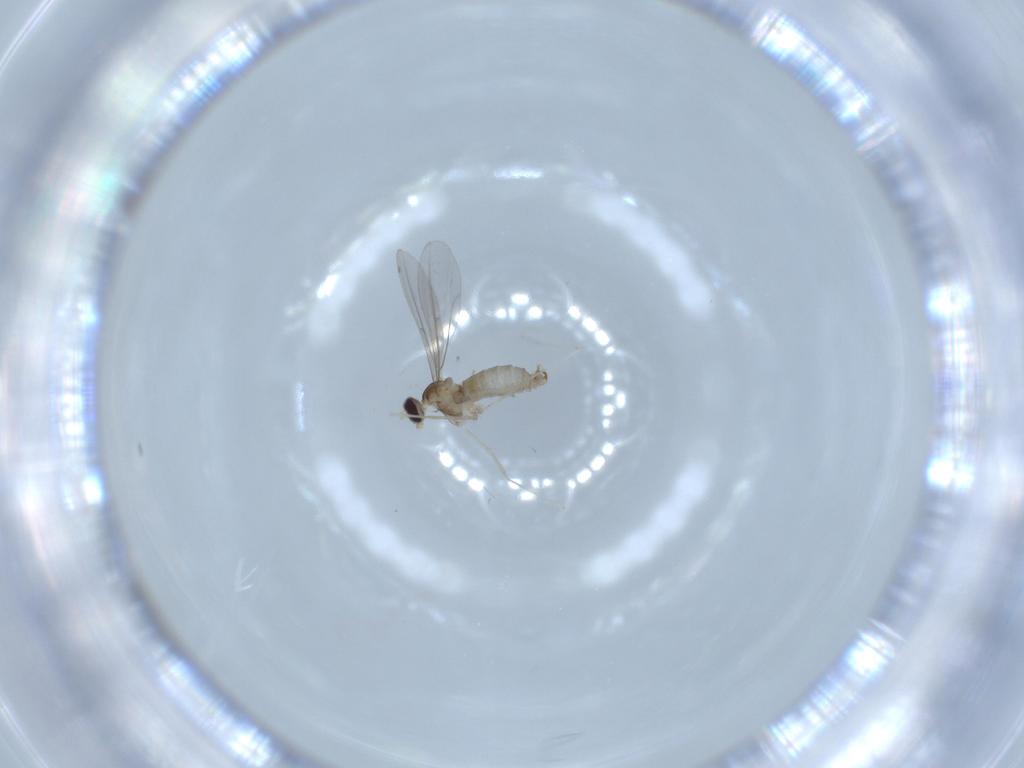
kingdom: Animalia
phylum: Arthropoda
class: Insecta
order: Diptera
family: Cecidomyiidae
